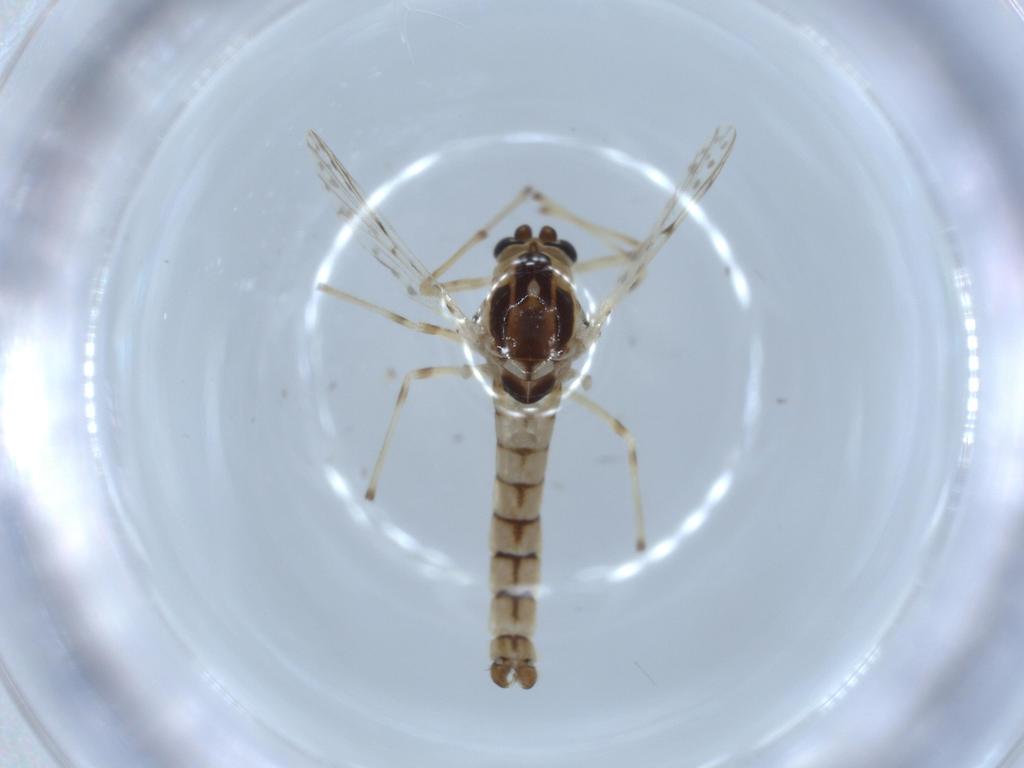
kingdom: Animalia
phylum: Arthropoda
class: Insecta
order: Diptera
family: Chironomidae
